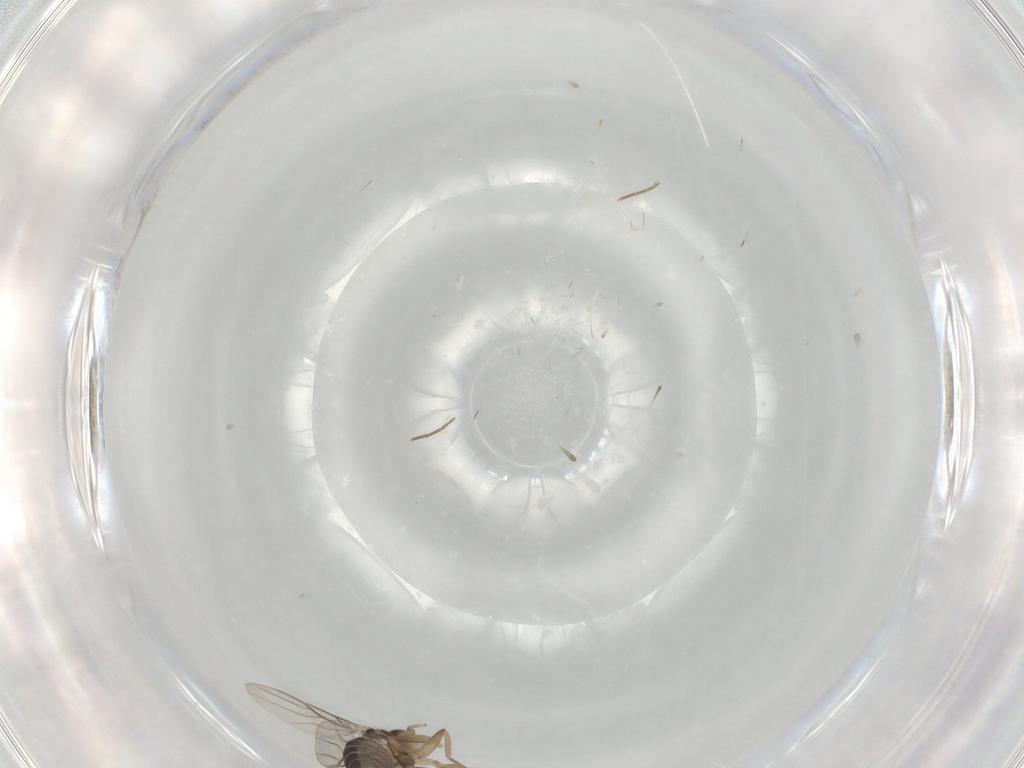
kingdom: Animalia
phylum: Arthropoda
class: Insecta
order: Diptera
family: Phoridae
